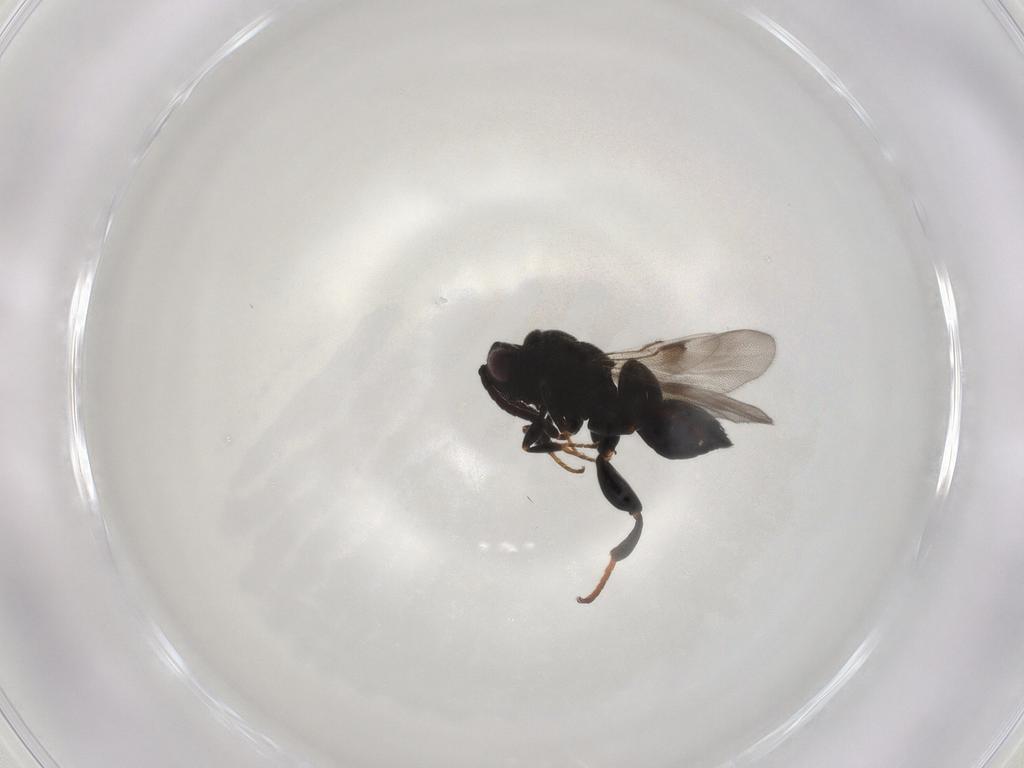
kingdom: Animalia
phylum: Arthropoda
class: Insecta
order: Hymenoptera
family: Chalcididae
